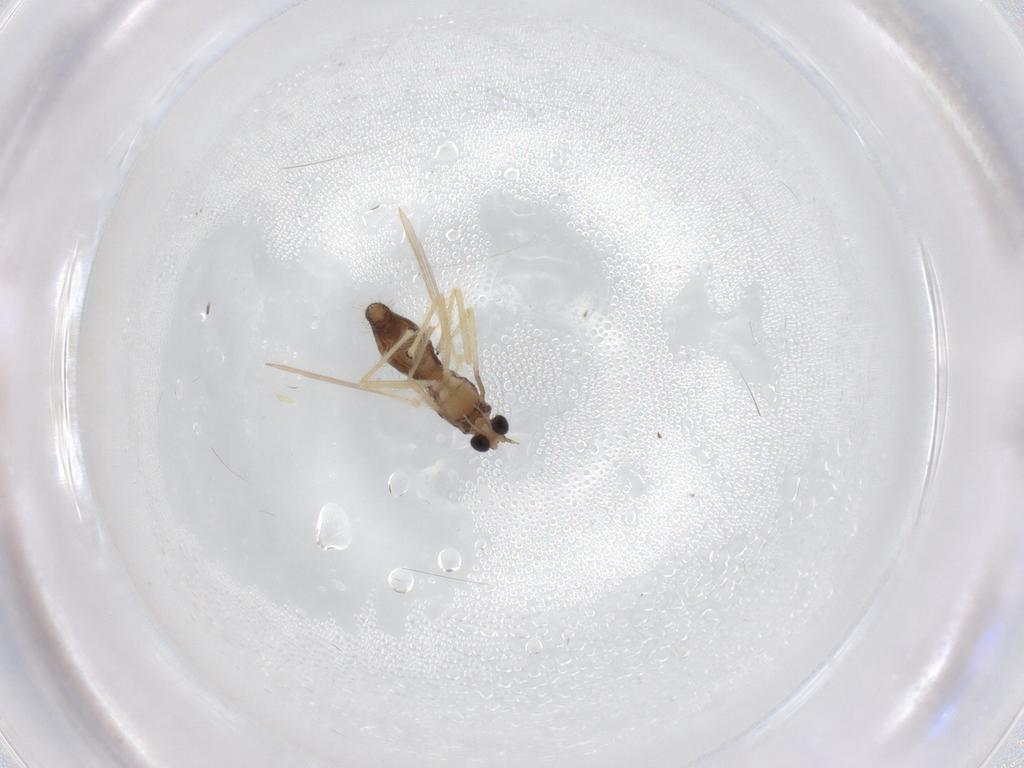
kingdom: Animalia
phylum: Arthropoda
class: Insecta
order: Diptera
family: Chironomidae
